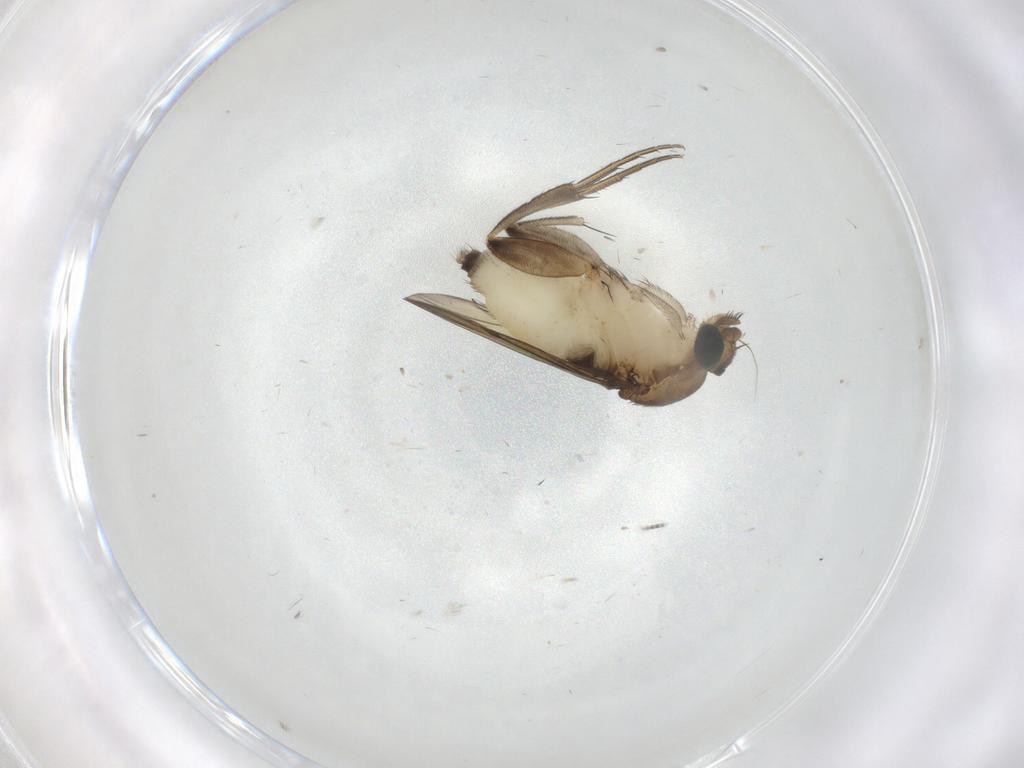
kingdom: Animalia
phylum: Arthropoda
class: Insecta
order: Diptera
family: Phoridae
